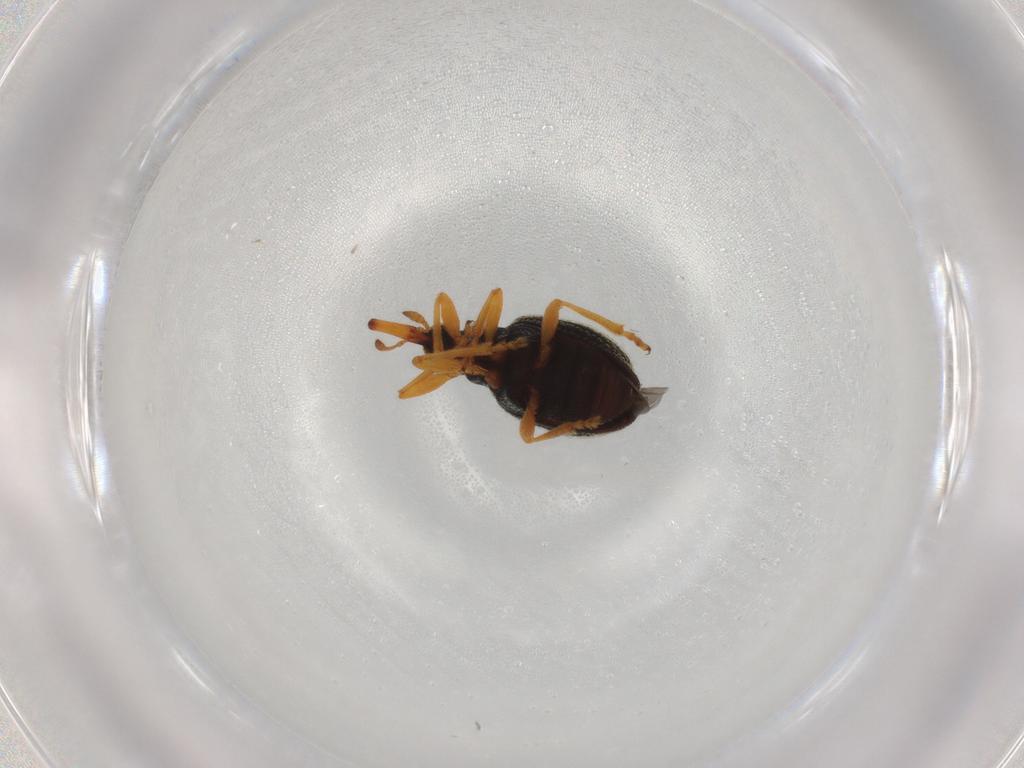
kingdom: Animalia
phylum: Arthropoda
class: Insecta
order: Coleoptera
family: Brentidae
